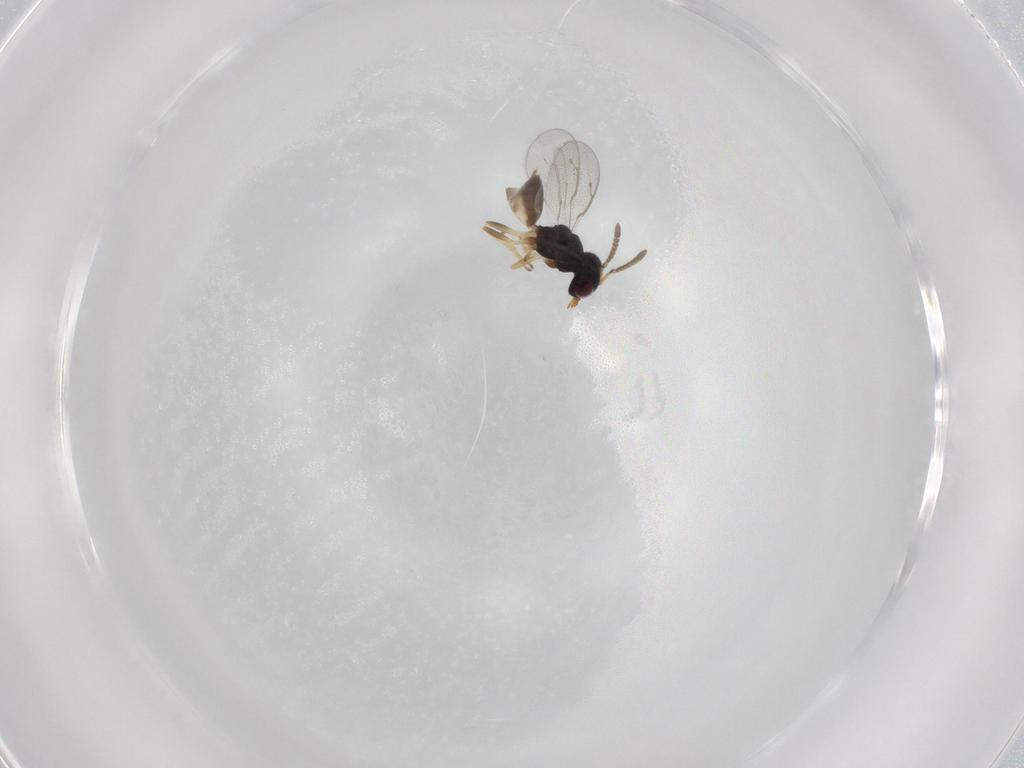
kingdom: Animalia
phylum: Arthropoda
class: Insecta
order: Hymenoptera
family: Pteromalidae
